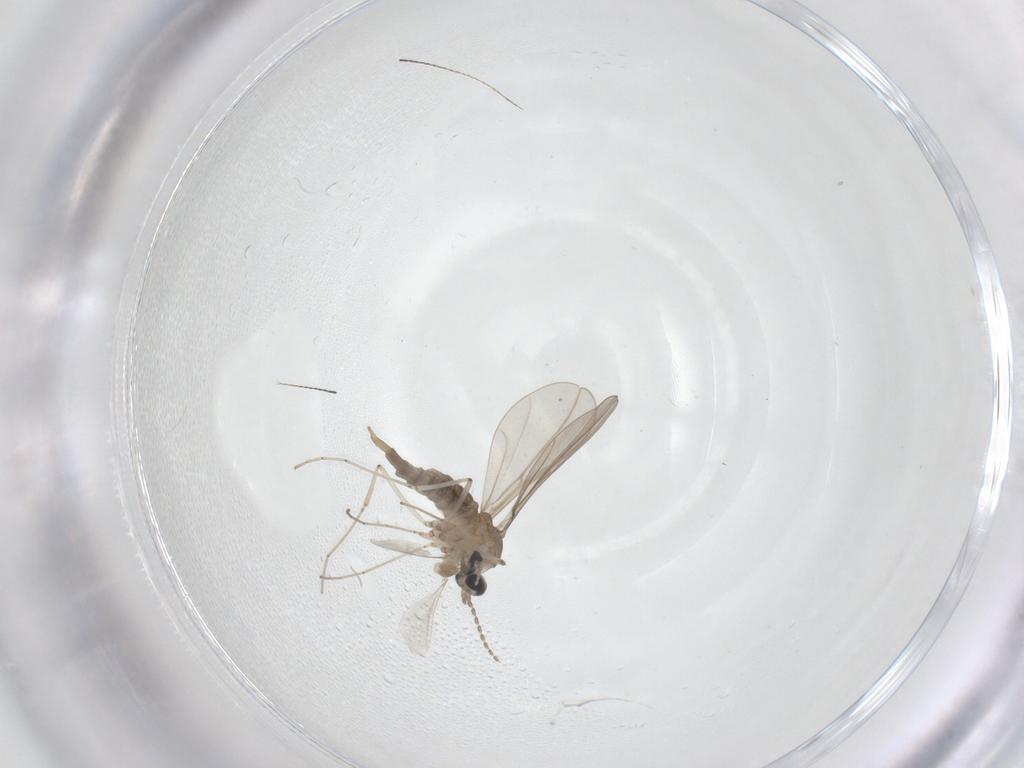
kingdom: Animalia
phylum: Arthropoda
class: Insecta
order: Diptera
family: Cecidomyiidae
